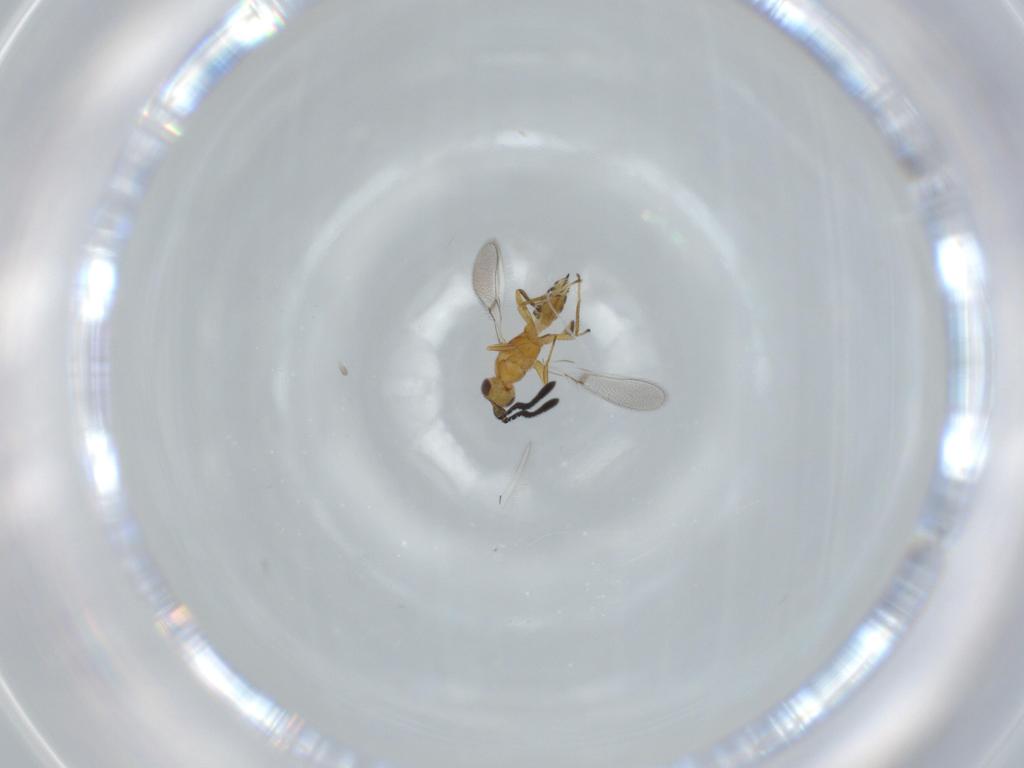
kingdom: Animalia
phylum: Arthropoda
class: Insecta
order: Hymenoptera
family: Mymaridae
